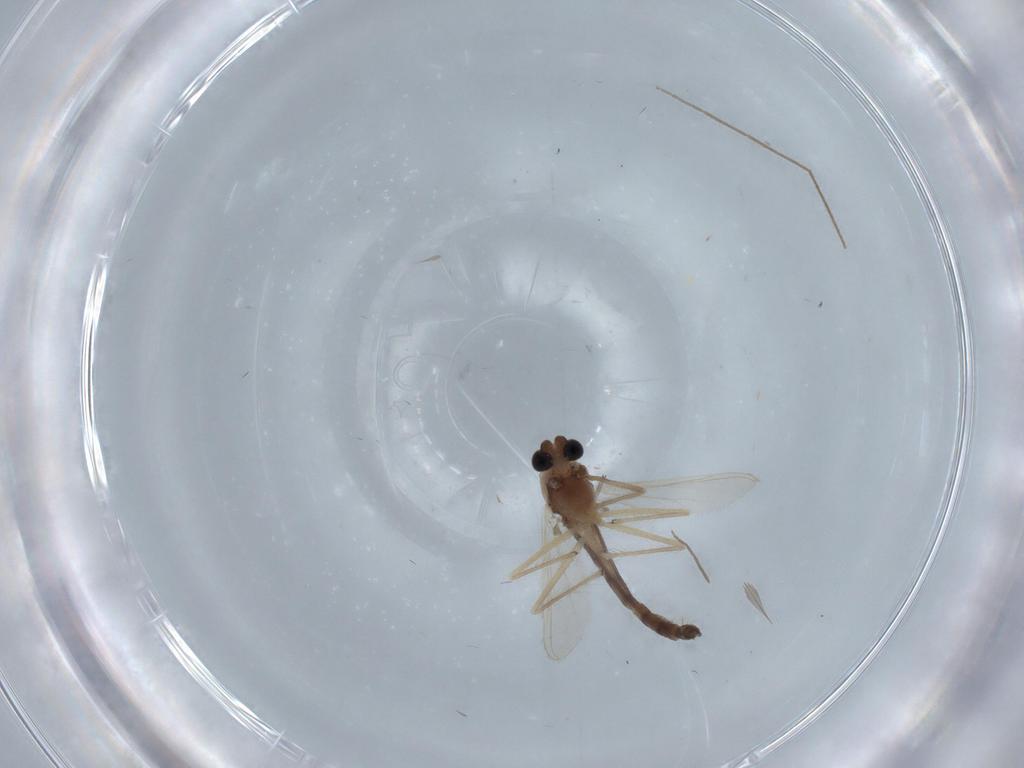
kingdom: Animalia
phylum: Arthropoda
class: Insecta
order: Diptera
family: Chironomidae
